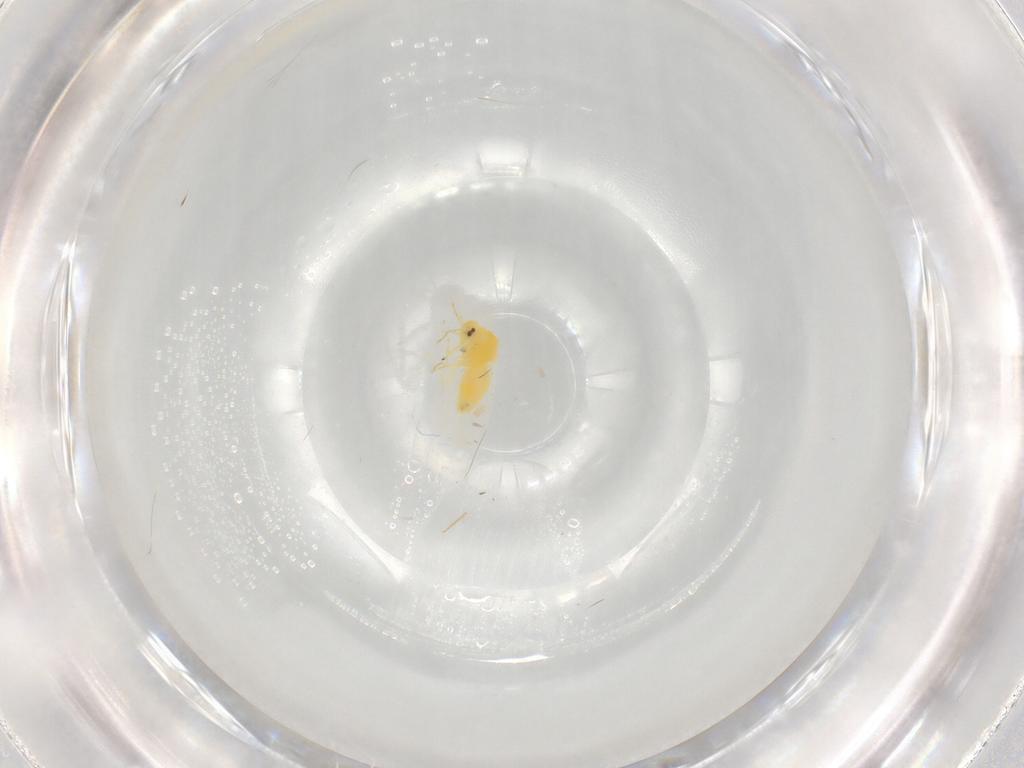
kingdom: Animalia
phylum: Arthropoda
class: Insecta
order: Hemiptera
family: Aleyrodidae
